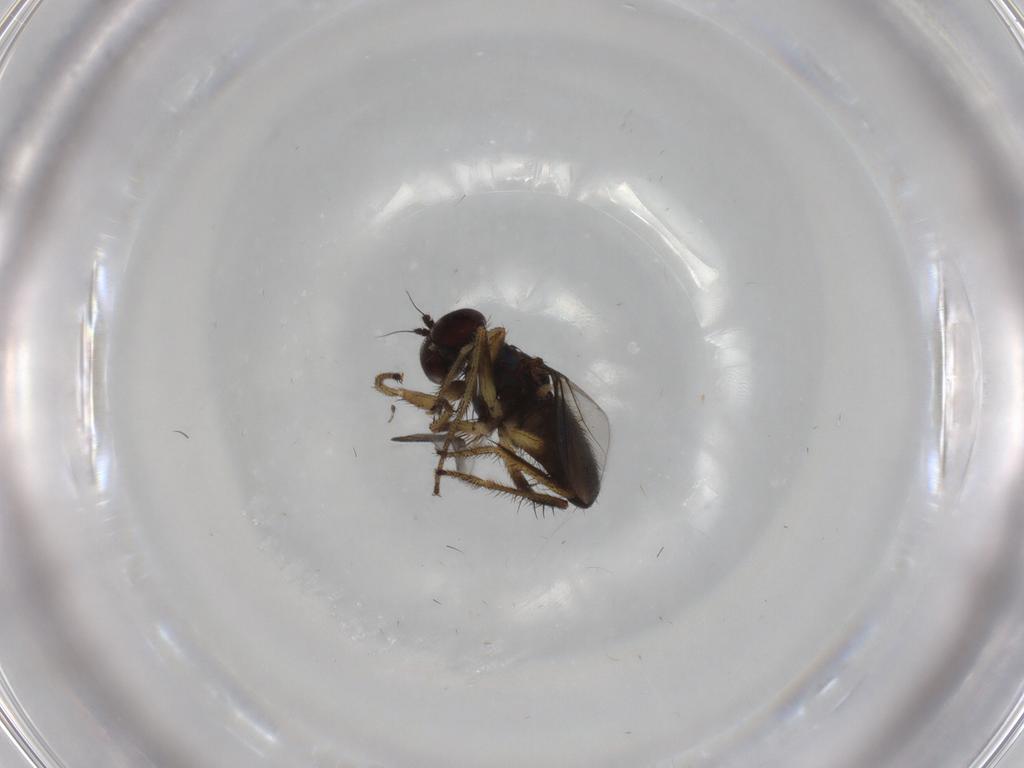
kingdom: Animalia
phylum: Arthropoda
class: Insecta
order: Diptera
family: Dolichopodidae
